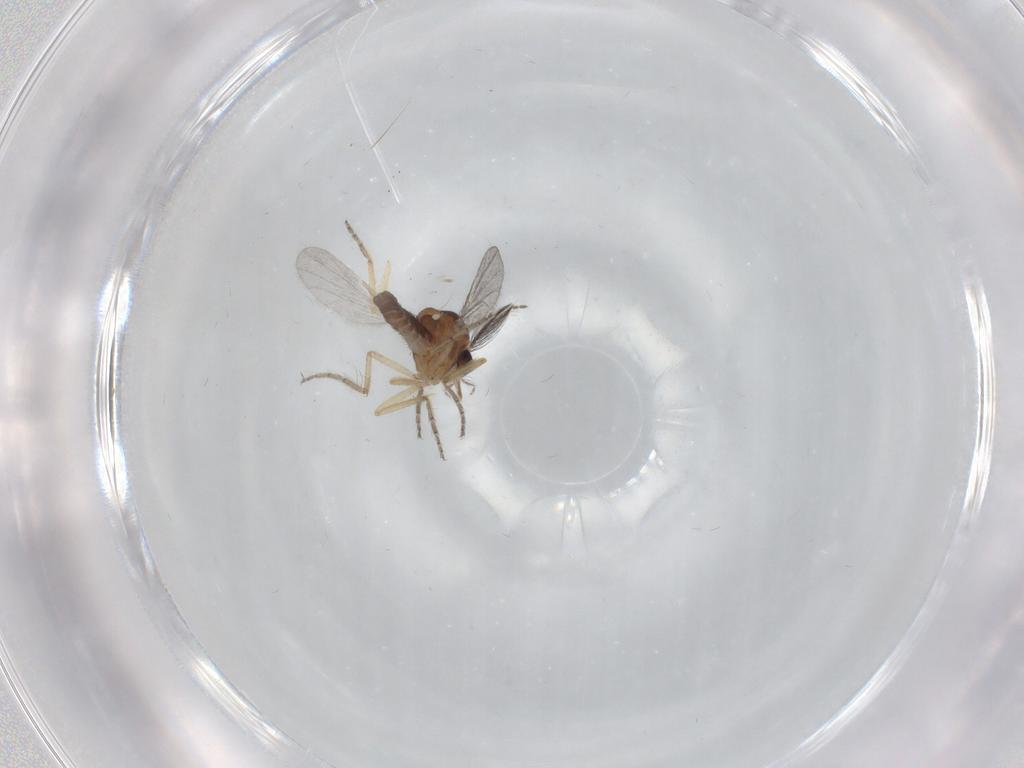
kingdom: Animalia
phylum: Arthropoda
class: Insecta
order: Diptera
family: Ceratopogonidae
